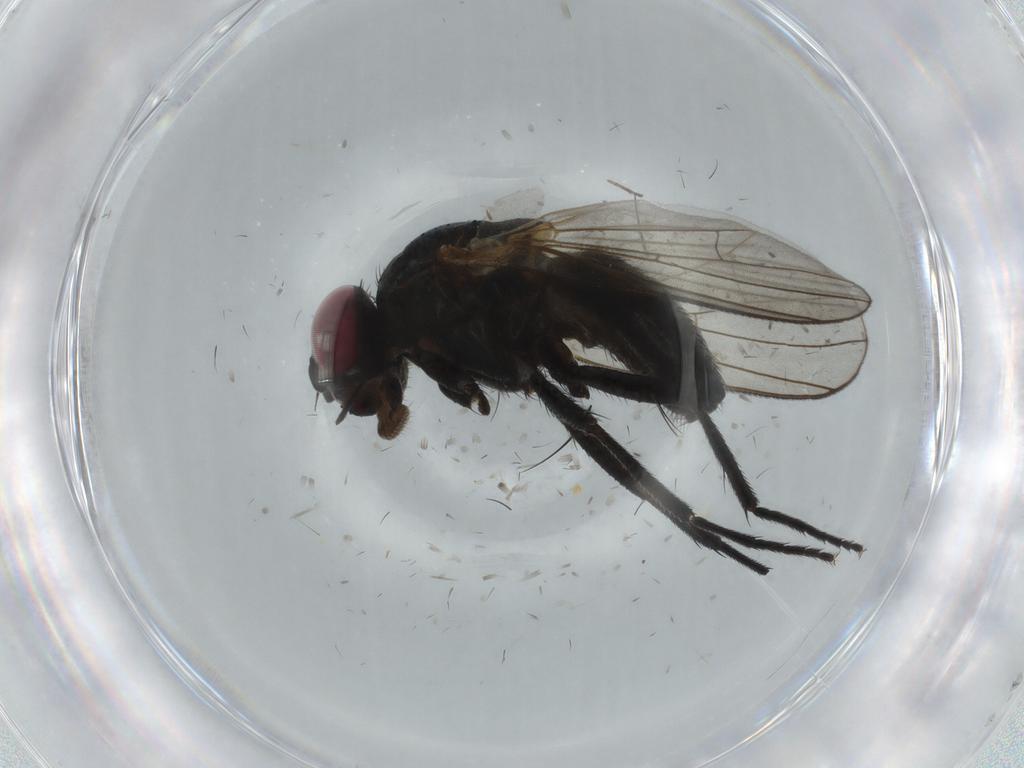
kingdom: Animalia
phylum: Arthropoda
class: Insecta
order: Diptera
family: Fannia
